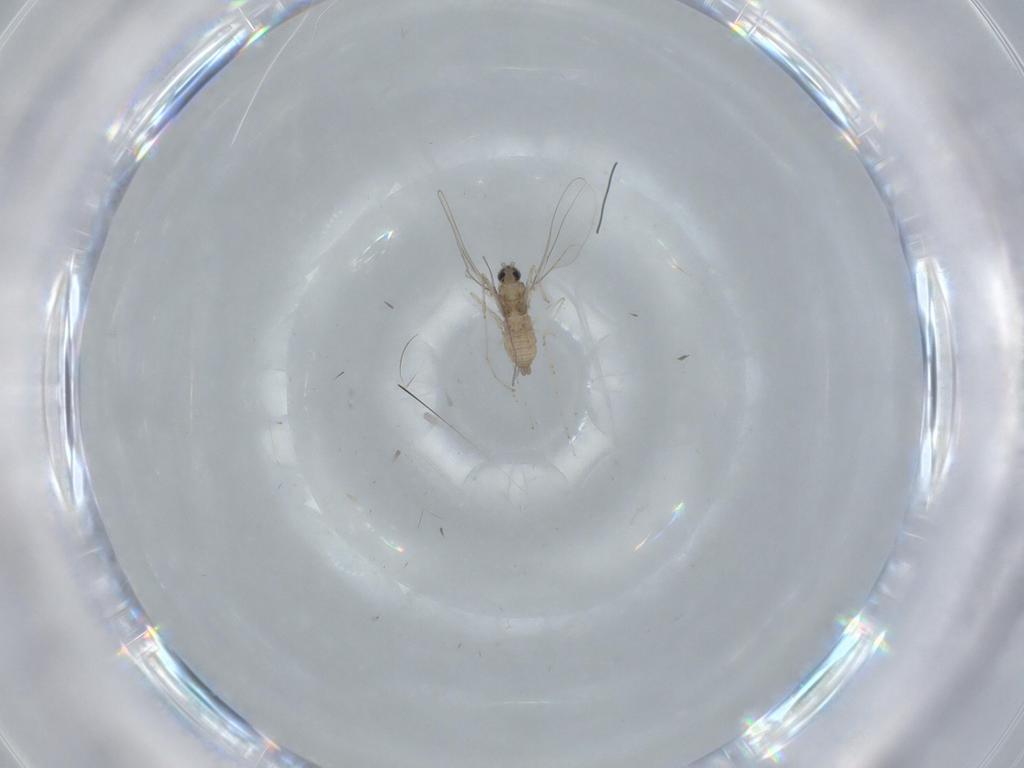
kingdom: Animalia
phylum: Arthropoda
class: Insecta
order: Diptera
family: Cecidomyiidae
